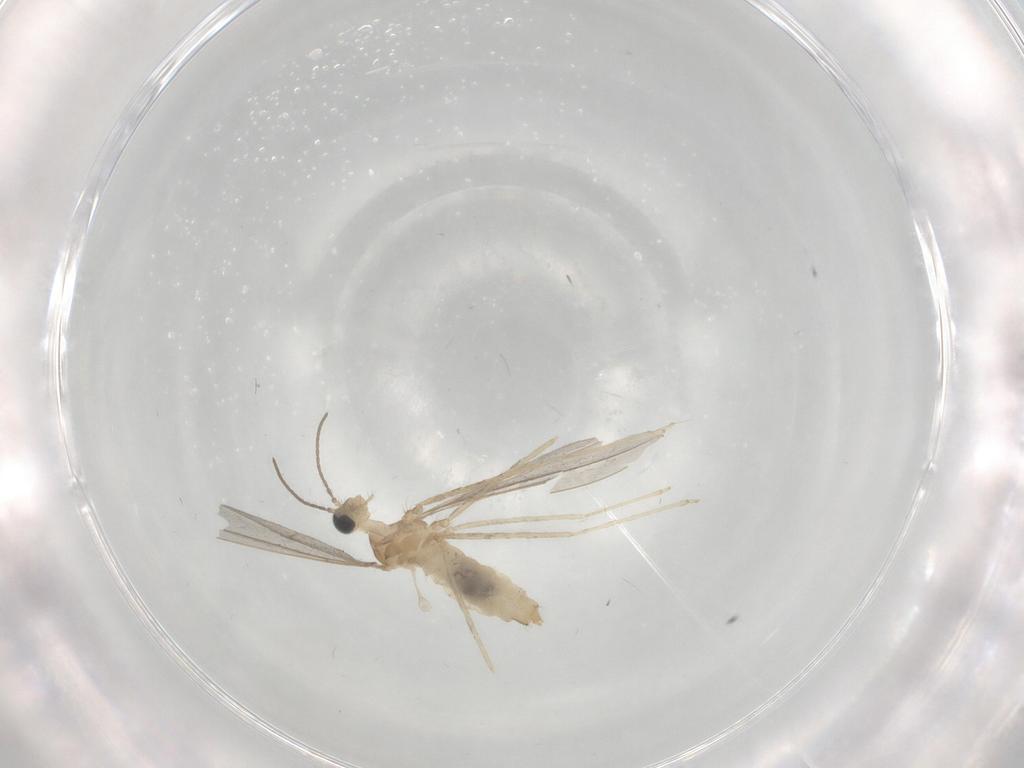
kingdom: Animalia
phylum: Arthropoda
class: Insecta
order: Diptera
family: Cecidomyiidae
